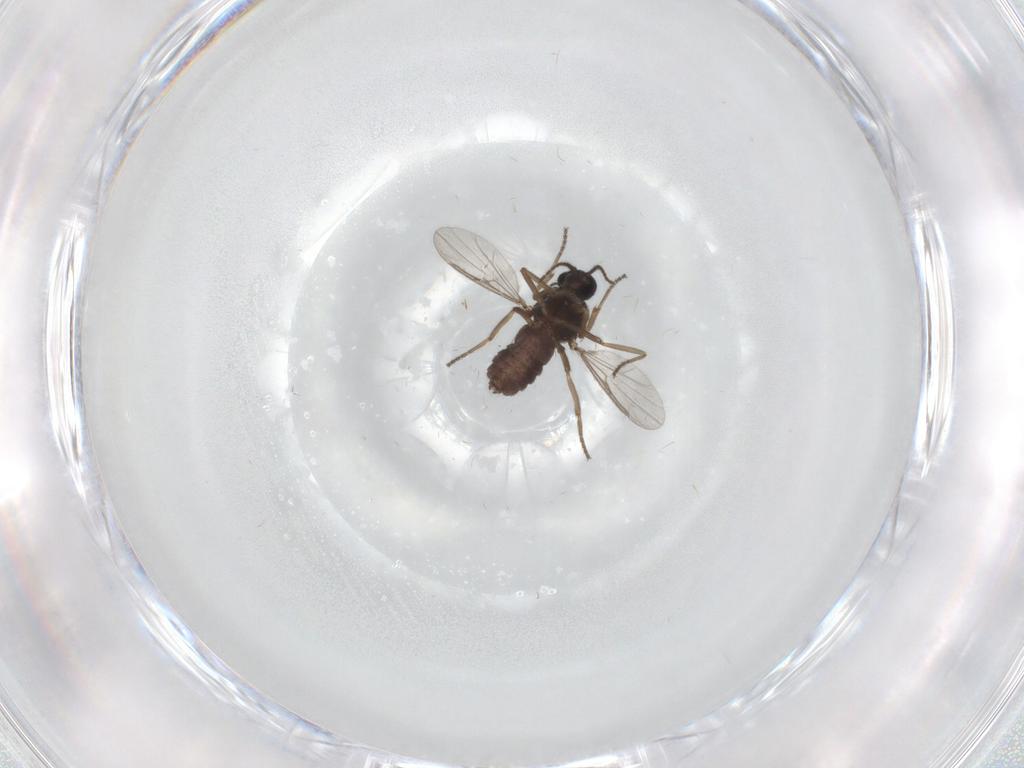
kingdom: Animalia
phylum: Arthropoda
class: Insecta
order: Diptera
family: Ceratopogonidae
